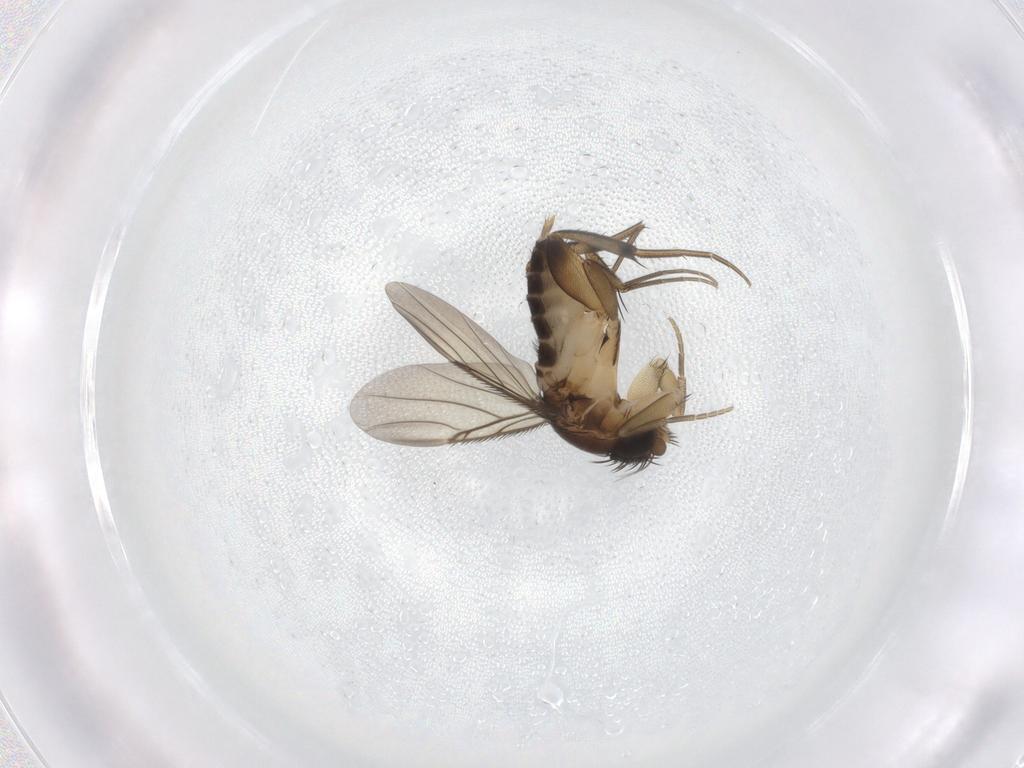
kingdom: Animalia
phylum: Arthropoda
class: Insecta
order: Diptera
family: Phoridae
